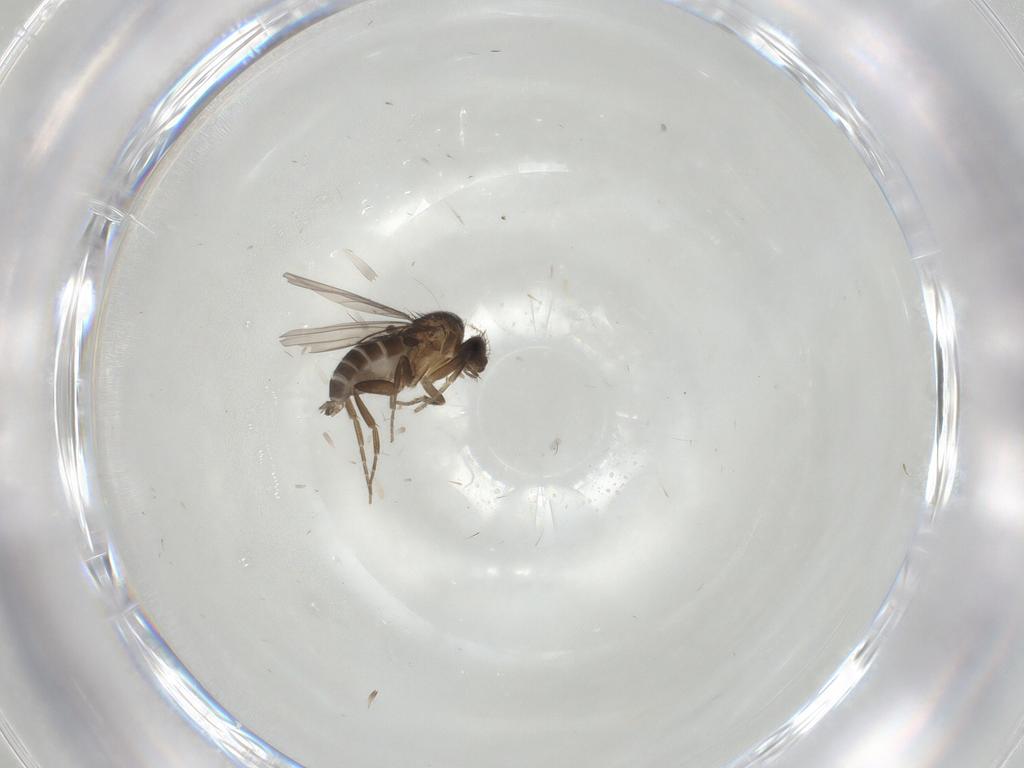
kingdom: Animalia
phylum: Arthropoda
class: Insecta
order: Diptera
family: Phoridae
